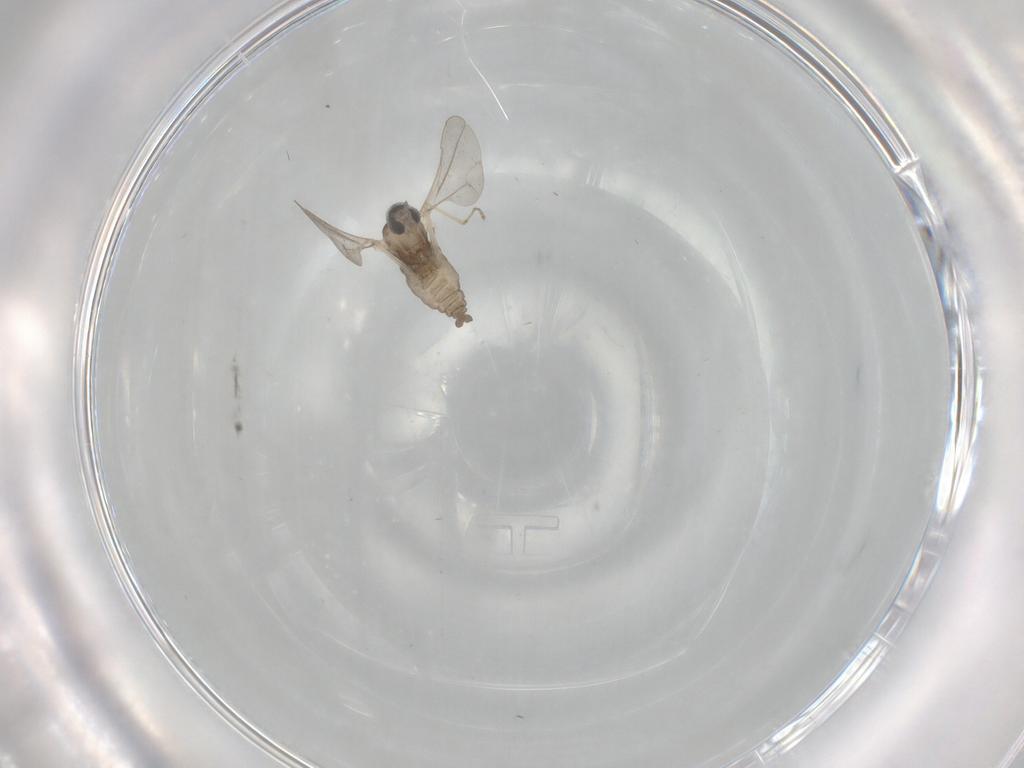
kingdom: Animalia
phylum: Arthropoda
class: Insecta
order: Diptera
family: Cecidomyiidae
